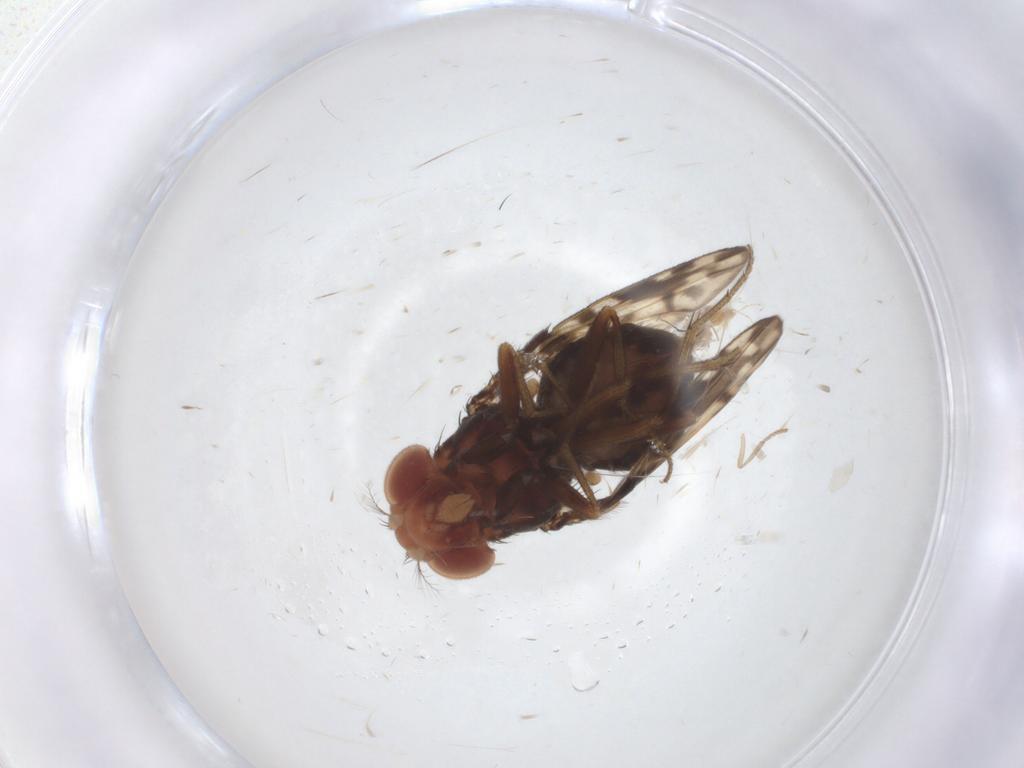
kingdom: Animalia
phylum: Arthropoda
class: Insecta
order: Diptera
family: Drosophilidae
